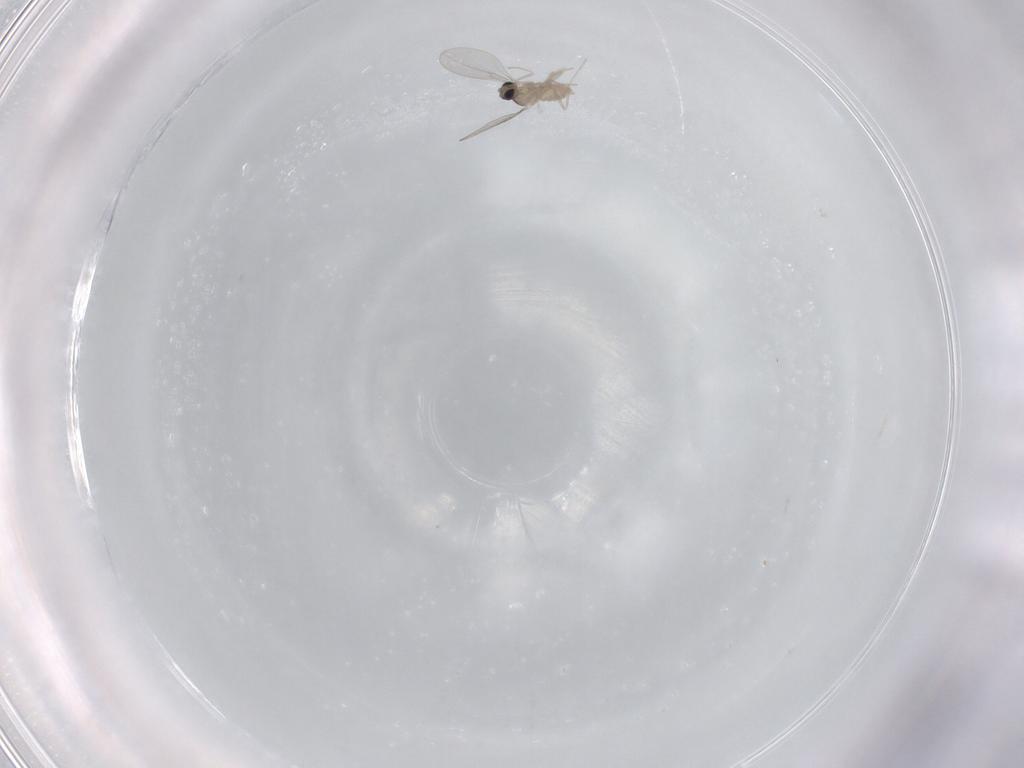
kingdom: Animalia
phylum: Arthropoda
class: Insecta
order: Diptera
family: Cecidomyiidae
